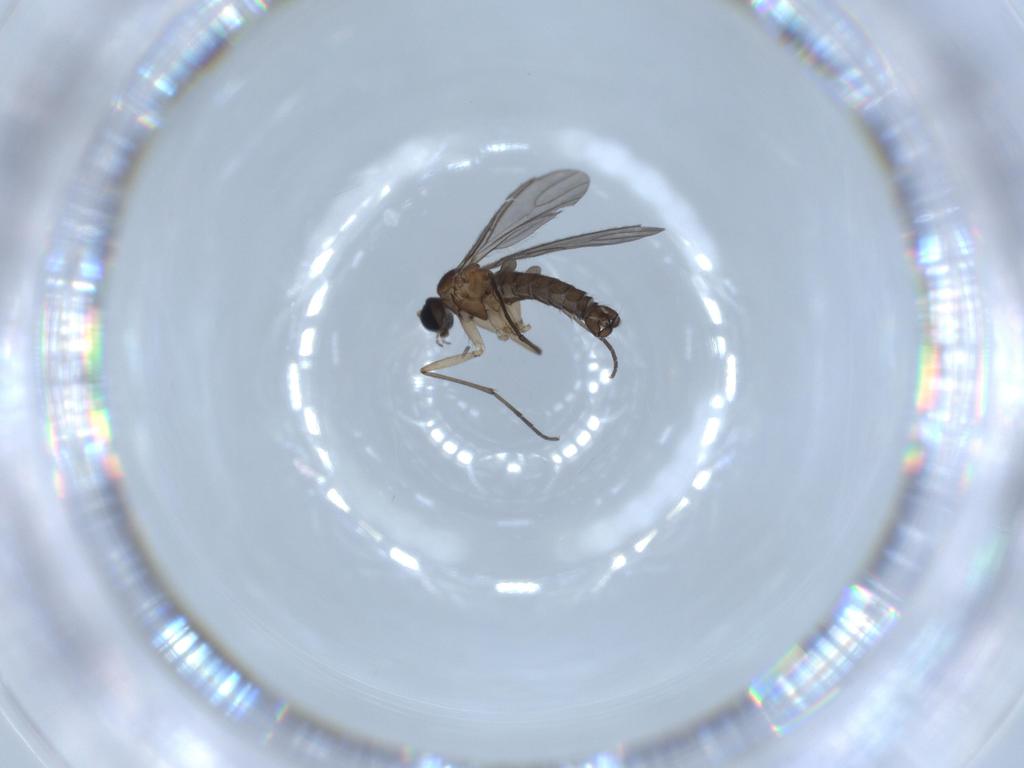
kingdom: Animalia
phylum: Arthropoda
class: Insecta
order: Diptera
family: Sciaridae
